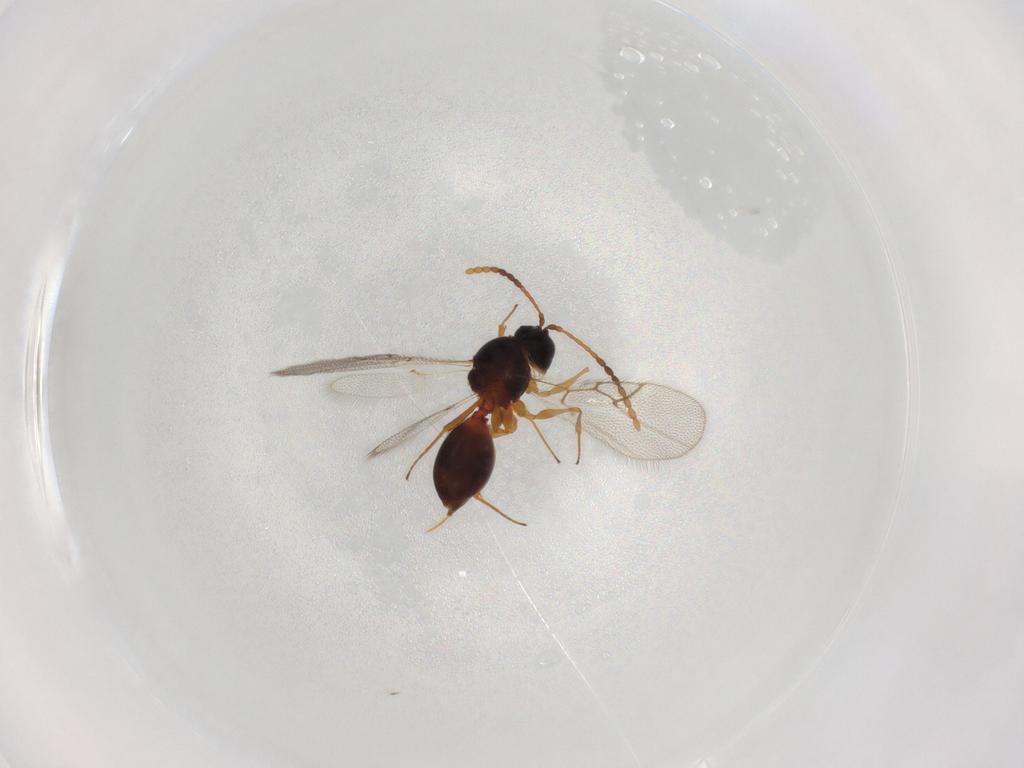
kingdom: Animalia
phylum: Arthropoda
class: Insecta
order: Hymenoptera
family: Figitidae
